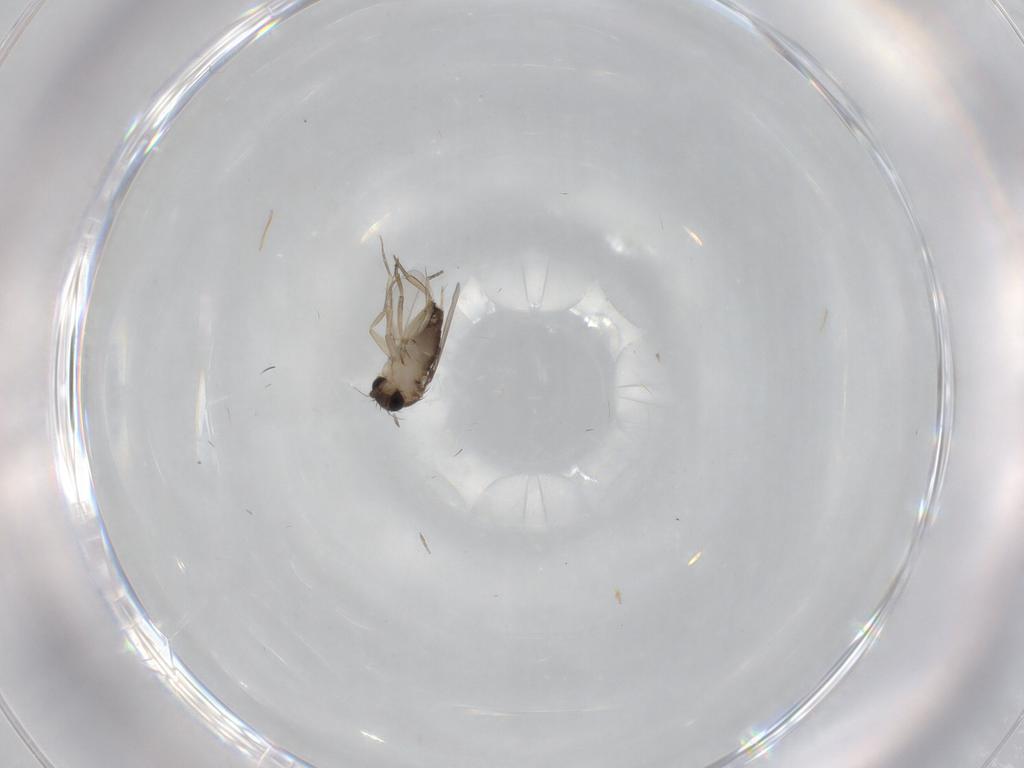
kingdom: Animalia
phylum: Arthropoda
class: Insecta
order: Diptera
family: Phoridae
